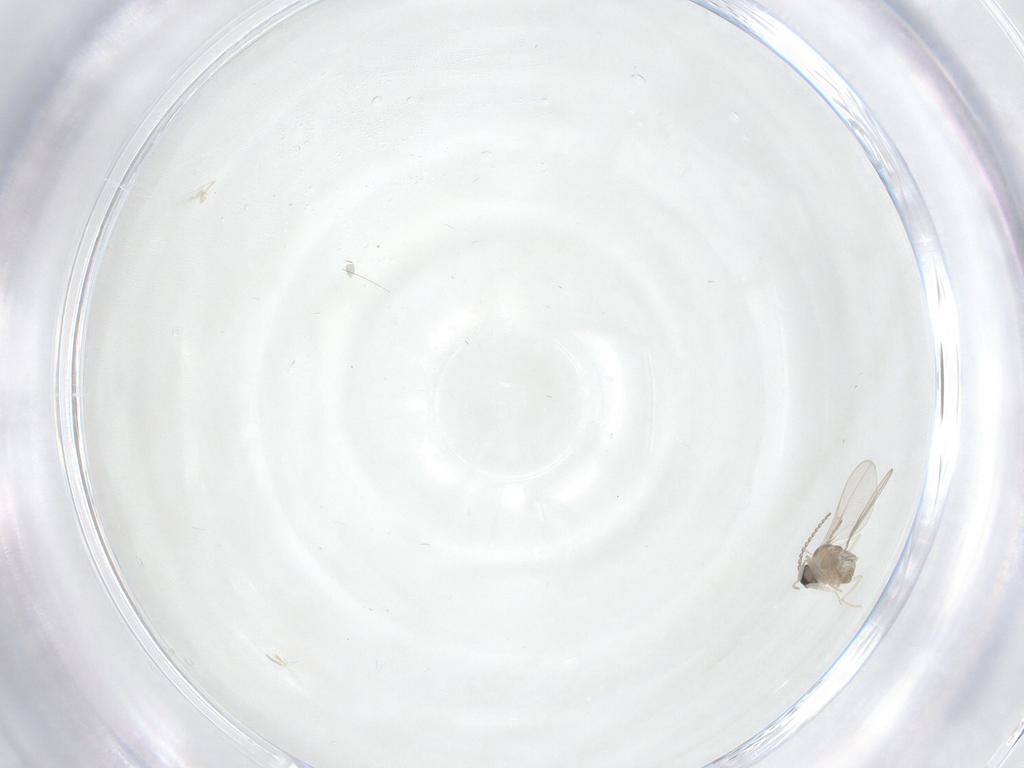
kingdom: Animalia
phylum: Arthropoda
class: Insecta
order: Diptera
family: Cecidomyiidae
